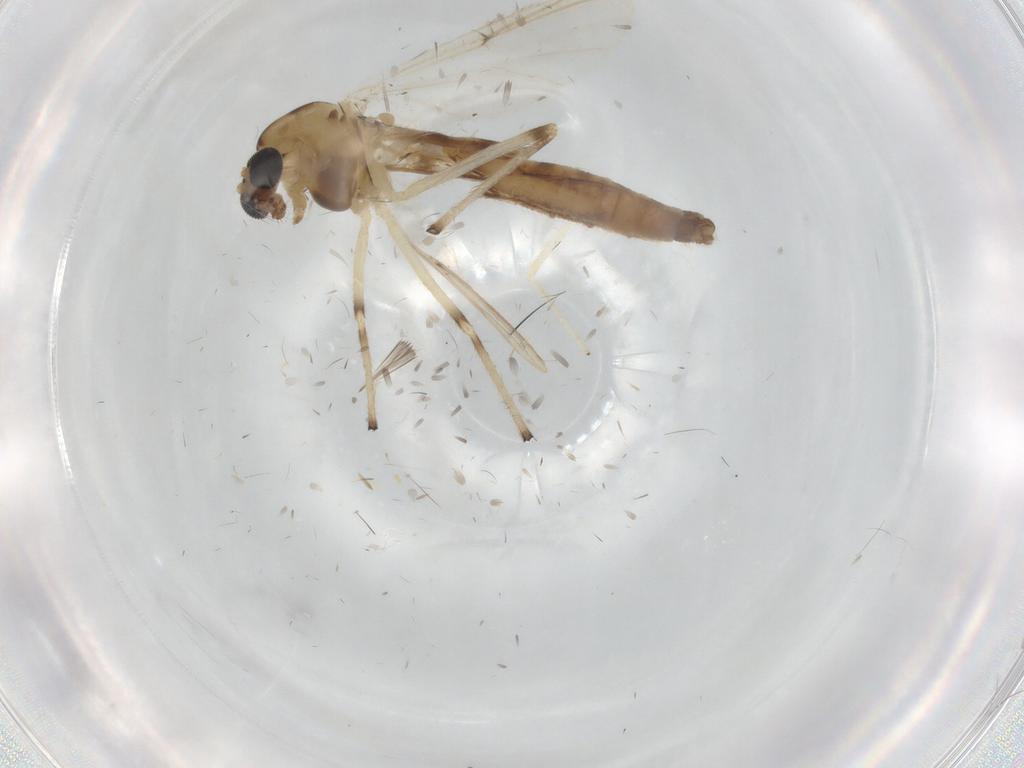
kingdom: Animalia
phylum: Arthropoda
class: Insecta
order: Diptera
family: Chironomidae
